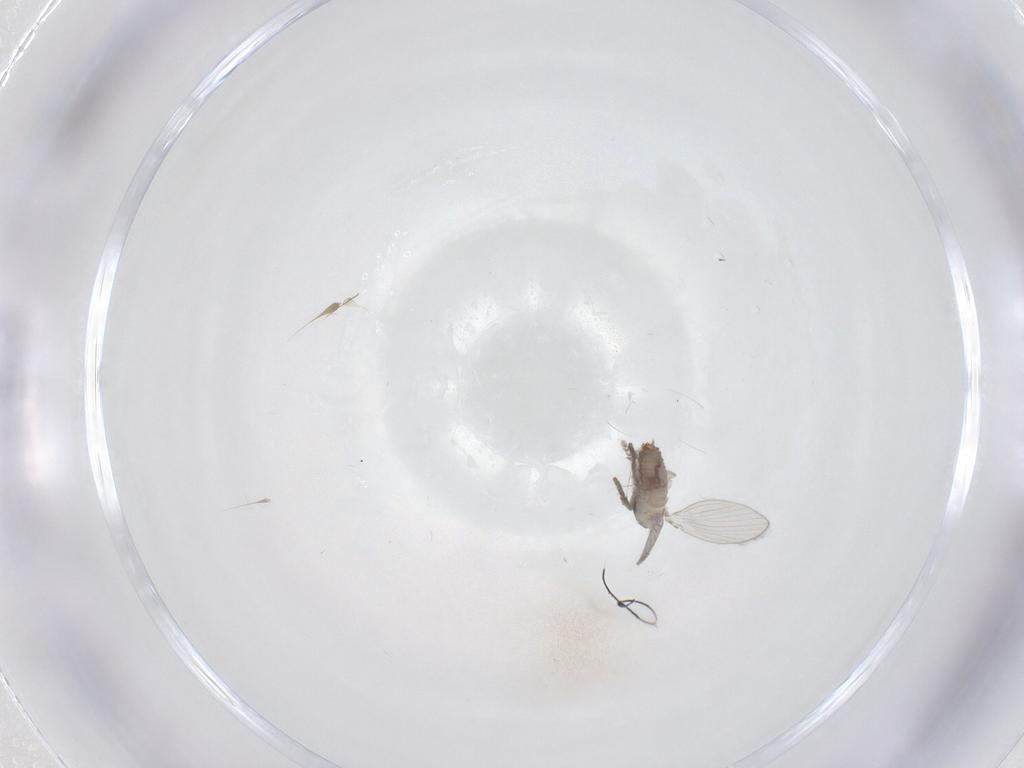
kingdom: Animalia
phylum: Arthropoda
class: Insecta
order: Diptera
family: Psychodidae
